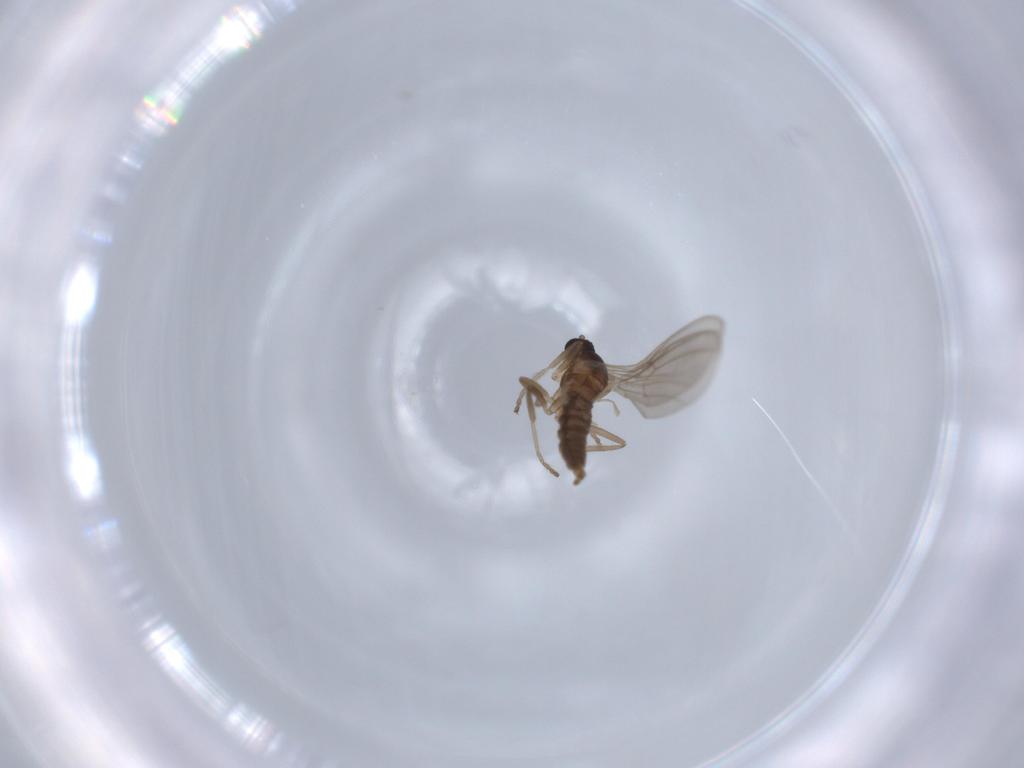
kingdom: Animalia
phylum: Arthropoda
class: Insecta
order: Diptera
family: Cecidomyiidae
